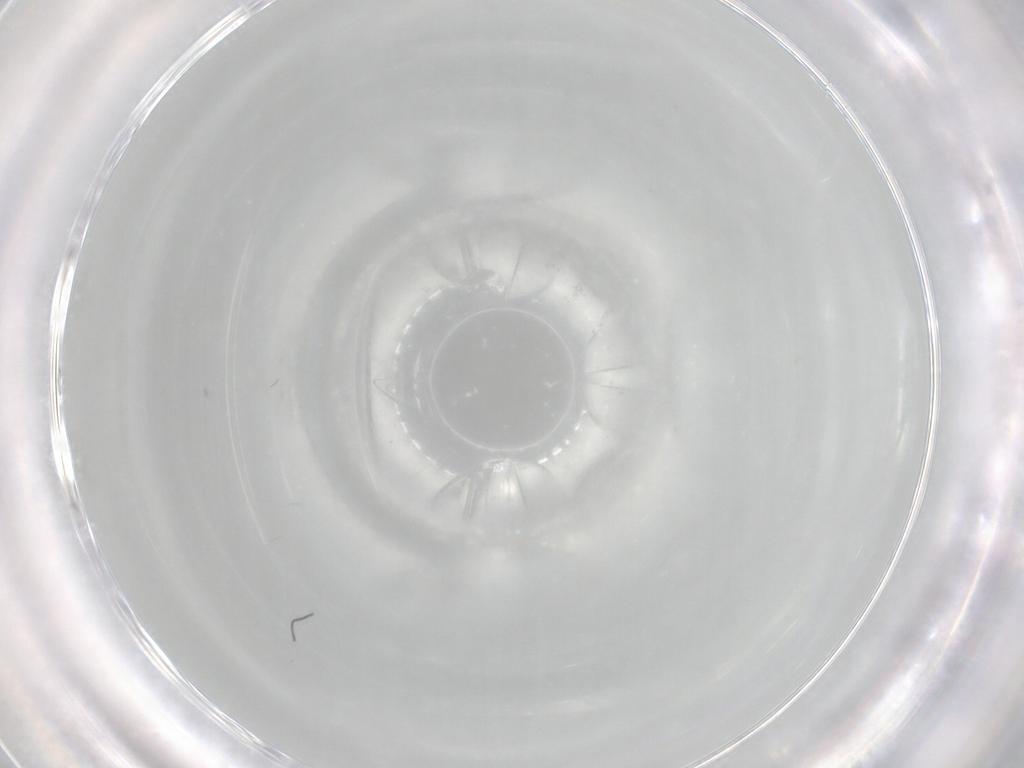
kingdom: Animalia
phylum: Arthropoda
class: Insecta
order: Diptera
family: Cecidomyiidae
